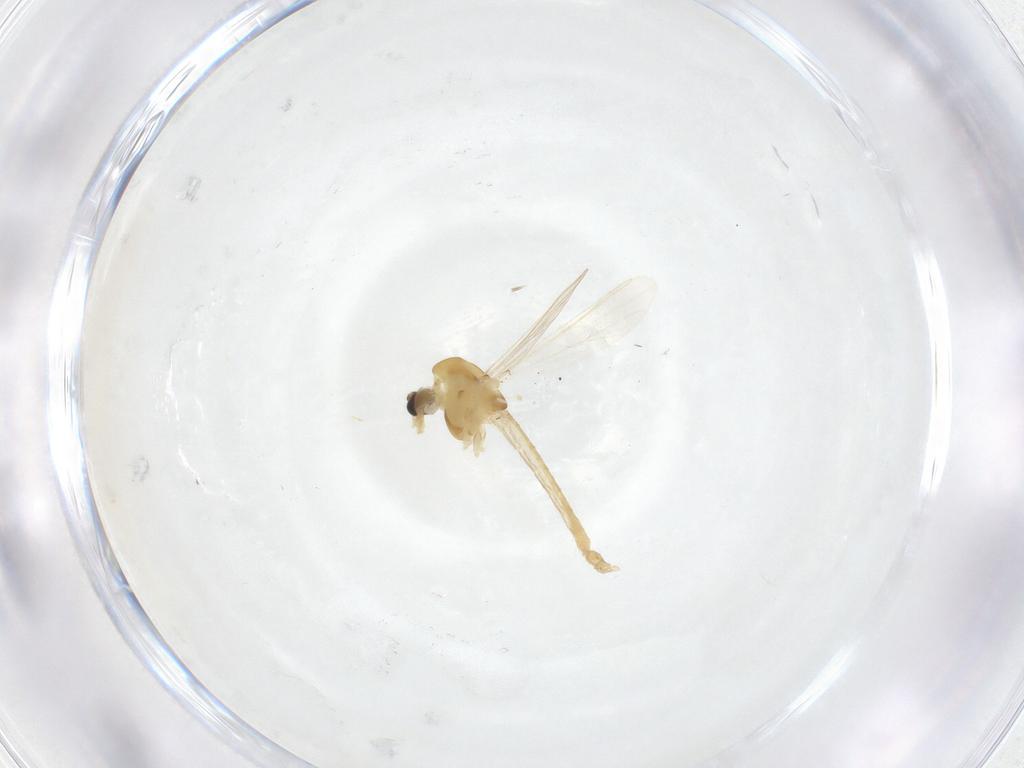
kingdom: Animalia
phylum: Arthropoda
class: Insecta
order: Diptera
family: Chironomidae
